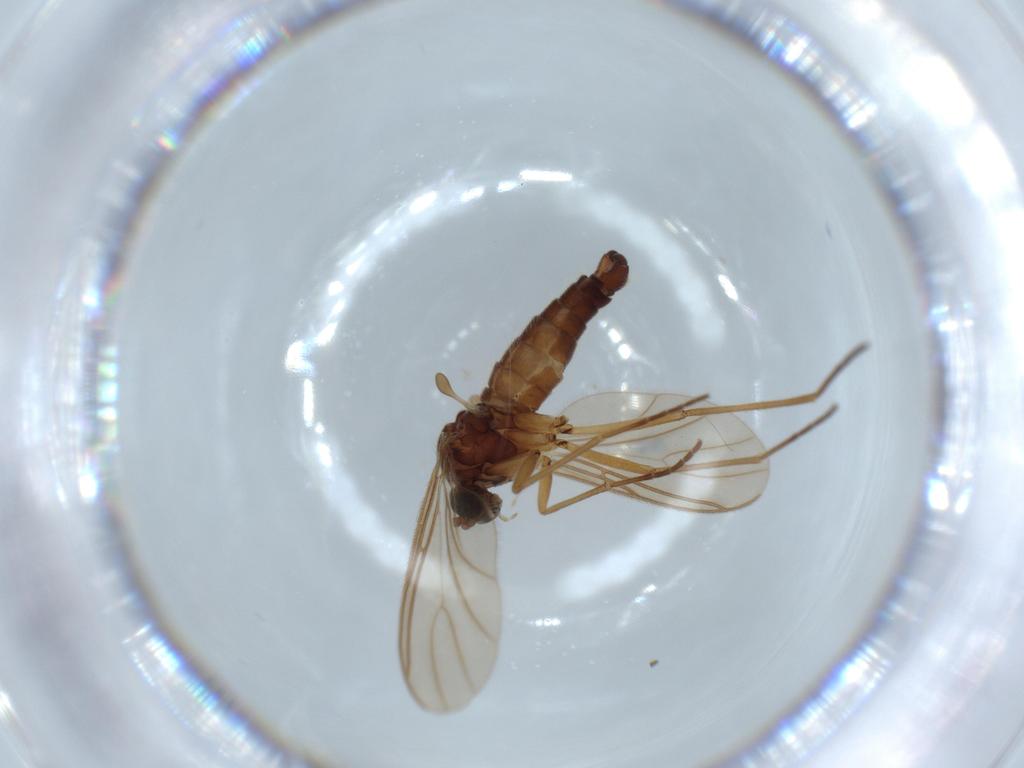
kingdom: Animalia
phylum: Arthropoda
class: Insecta
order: Diptera
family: Sciaridae
